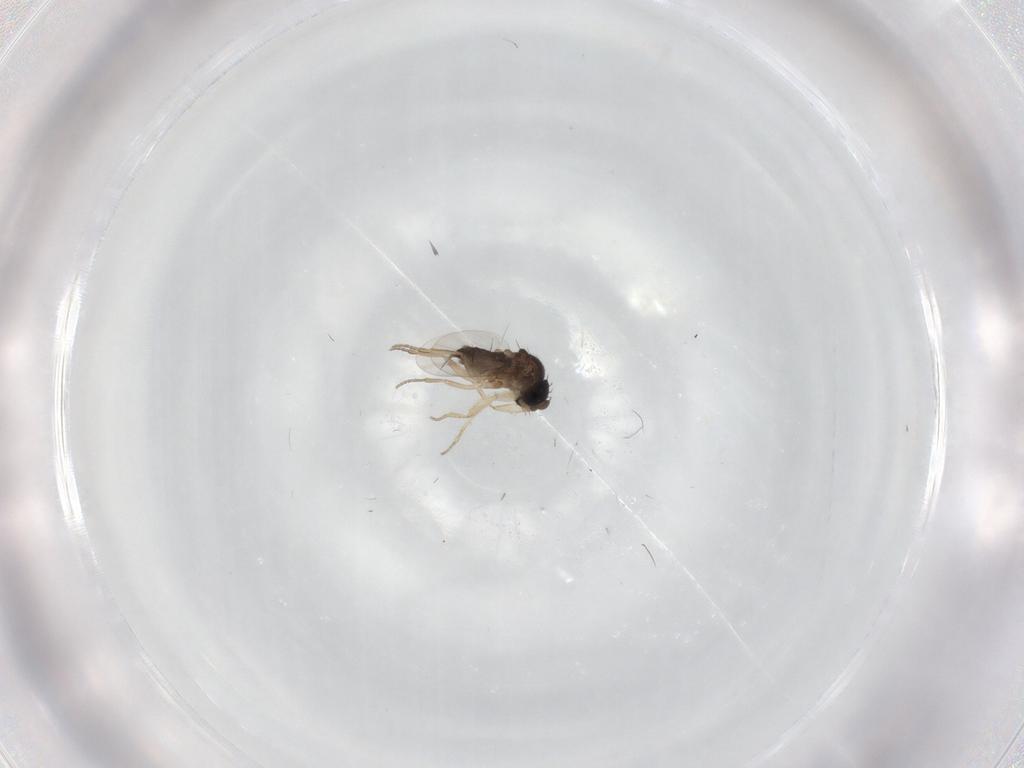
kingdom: Animalia
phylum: Arthropoda
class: Insecta
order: Diptera
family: Phoridae
